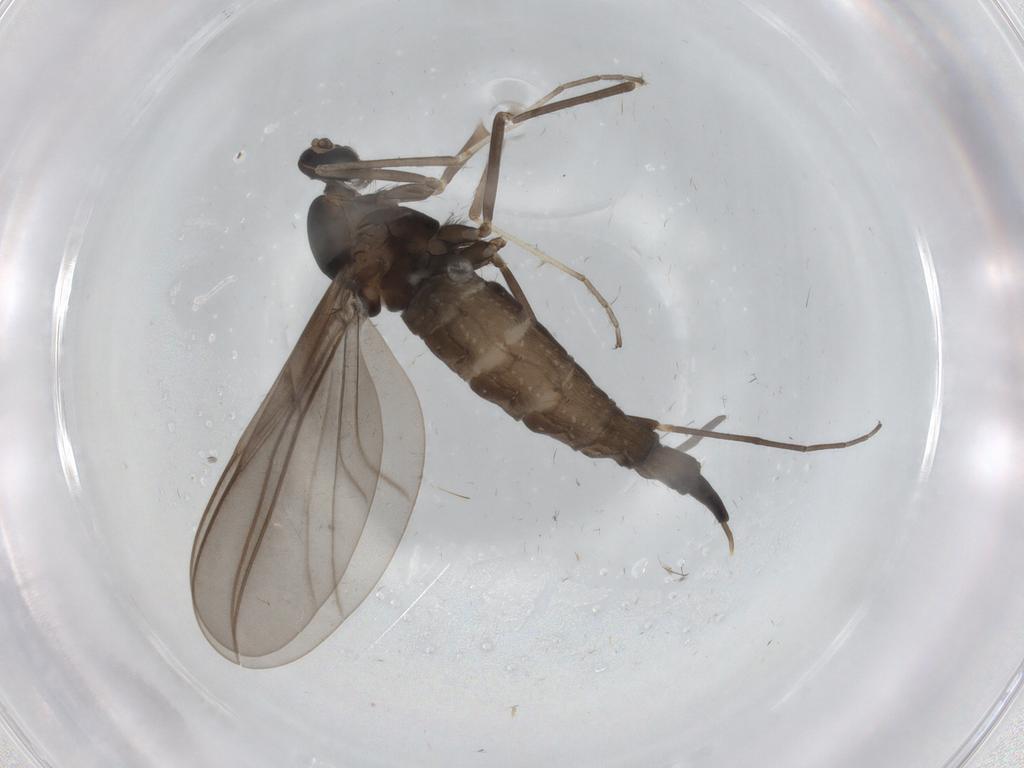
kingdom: Animalia
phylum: Arthropoda
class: Insecta
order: Diptera
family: Cecidomyiidae
